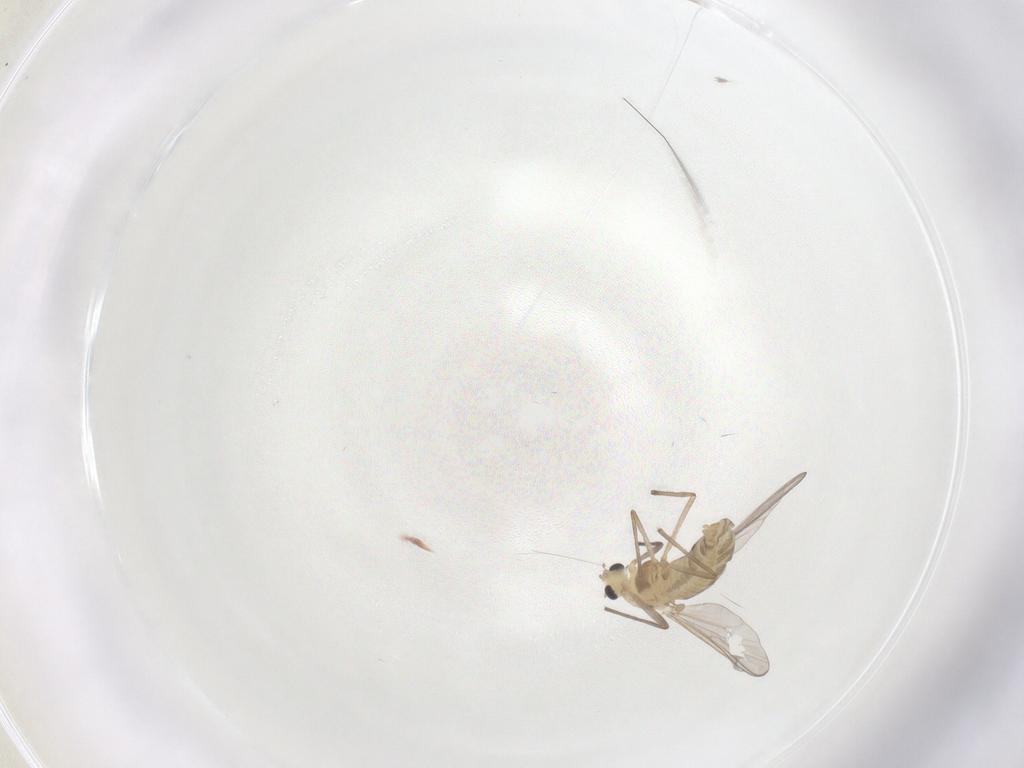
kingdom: Animalia
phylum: Arthropoda
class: Insecta
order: Diptera
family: Chironomidae
